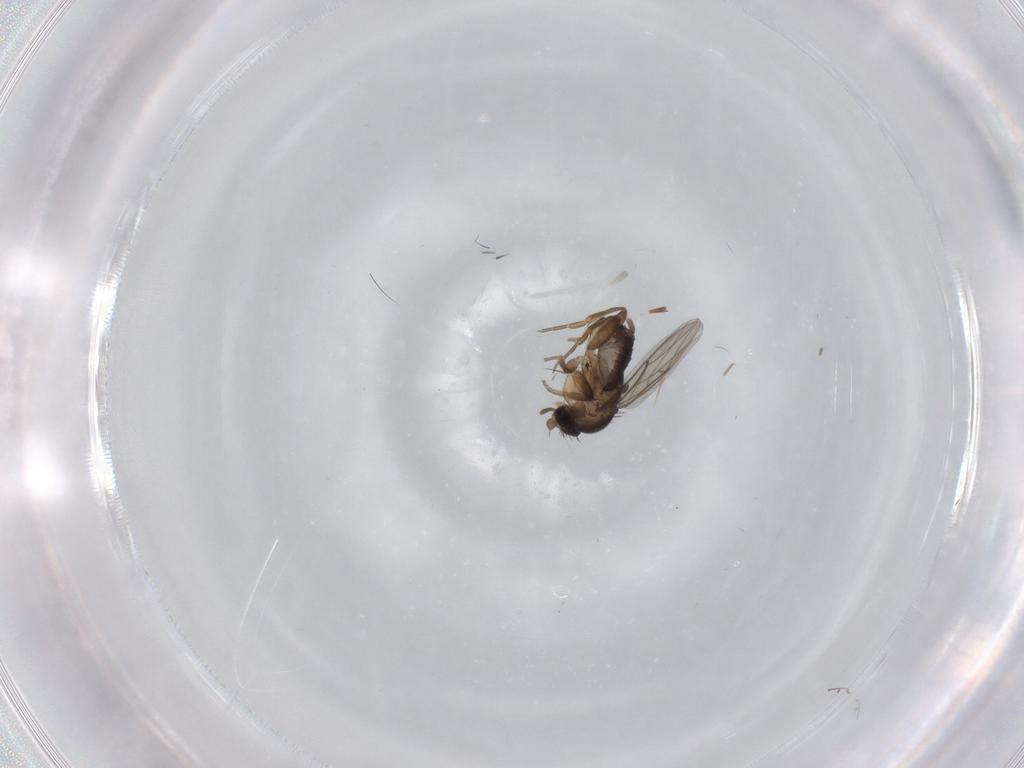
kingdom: Animalia
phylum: Arthropoda
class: Insecta
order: Diptera
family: Phoridae
